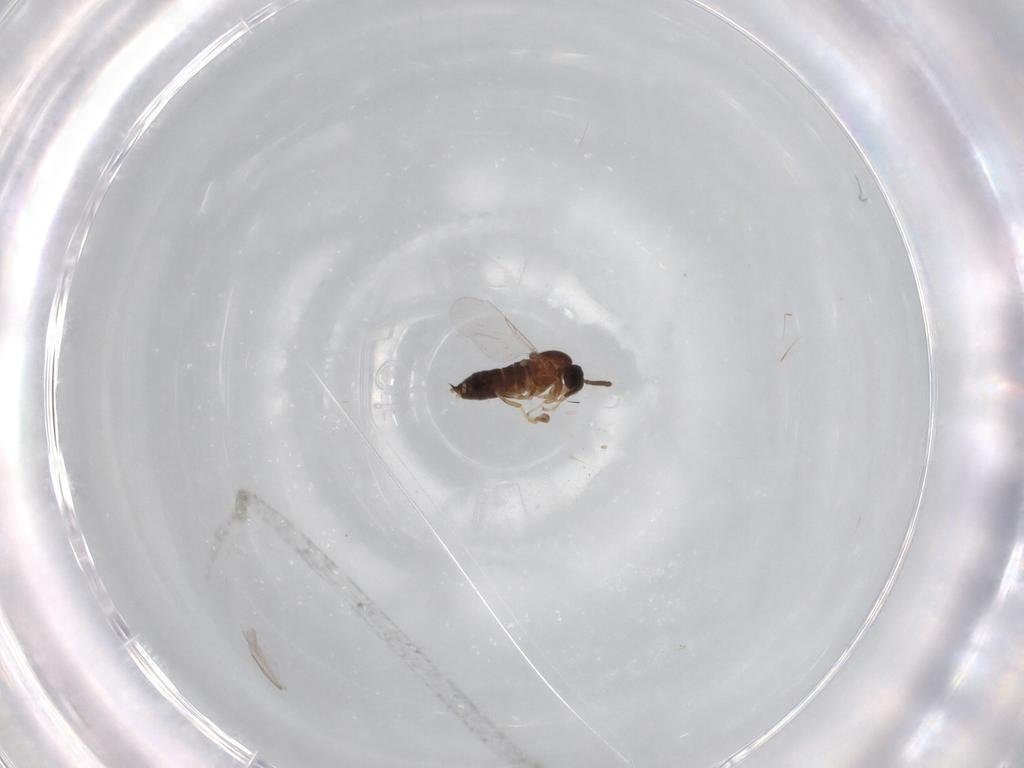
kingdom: Animalia
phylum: Arthropoda
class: Insecta
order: Diptera
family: Scatopsidae
